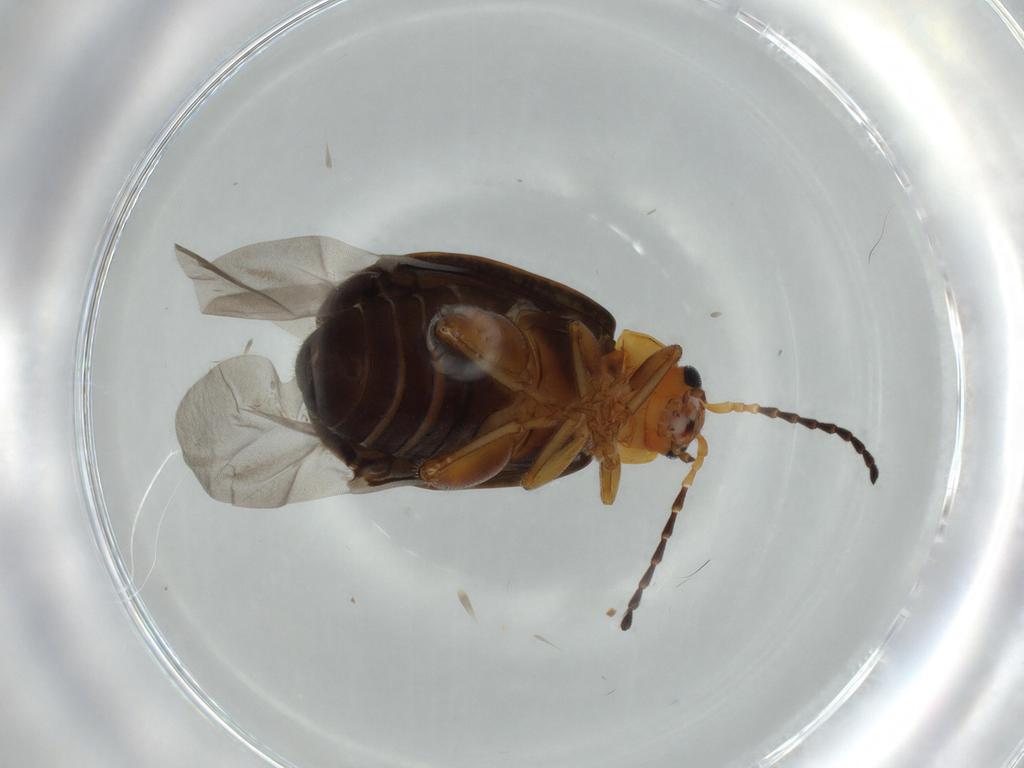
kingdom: Animalia
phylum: Arthropoda
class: Insecta
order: Coleoptera
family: Chrysomelidae
